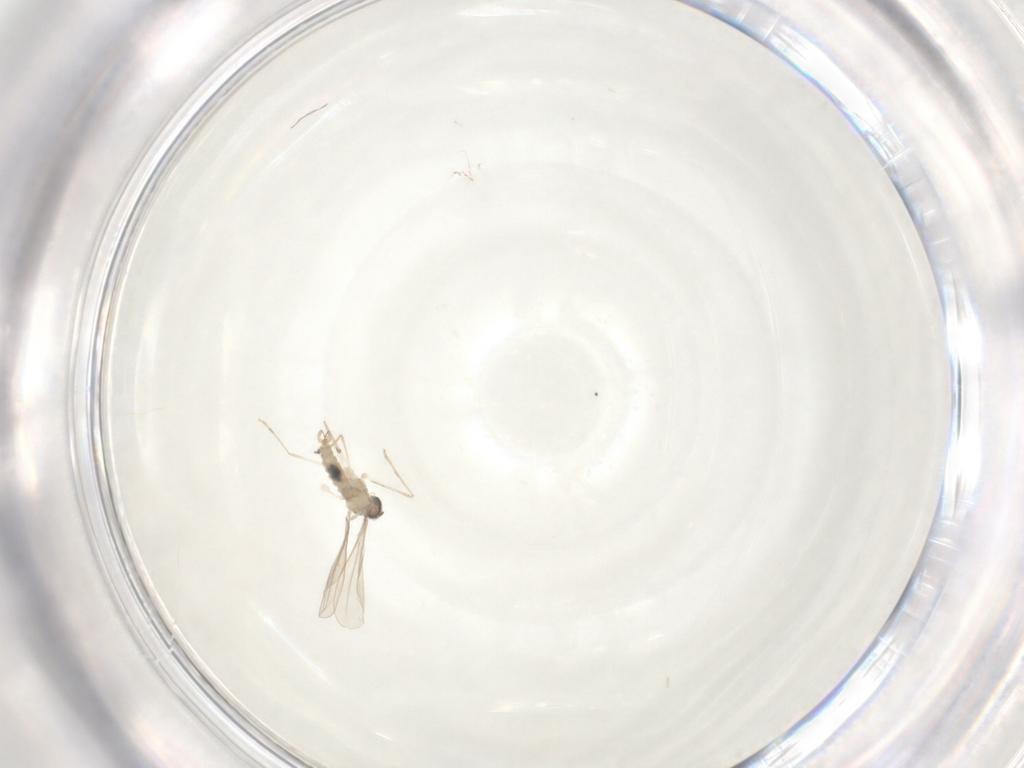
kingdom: Animalia
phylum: Arthropoda
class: Insecta
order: Diptera
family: Cecidomyiidae
